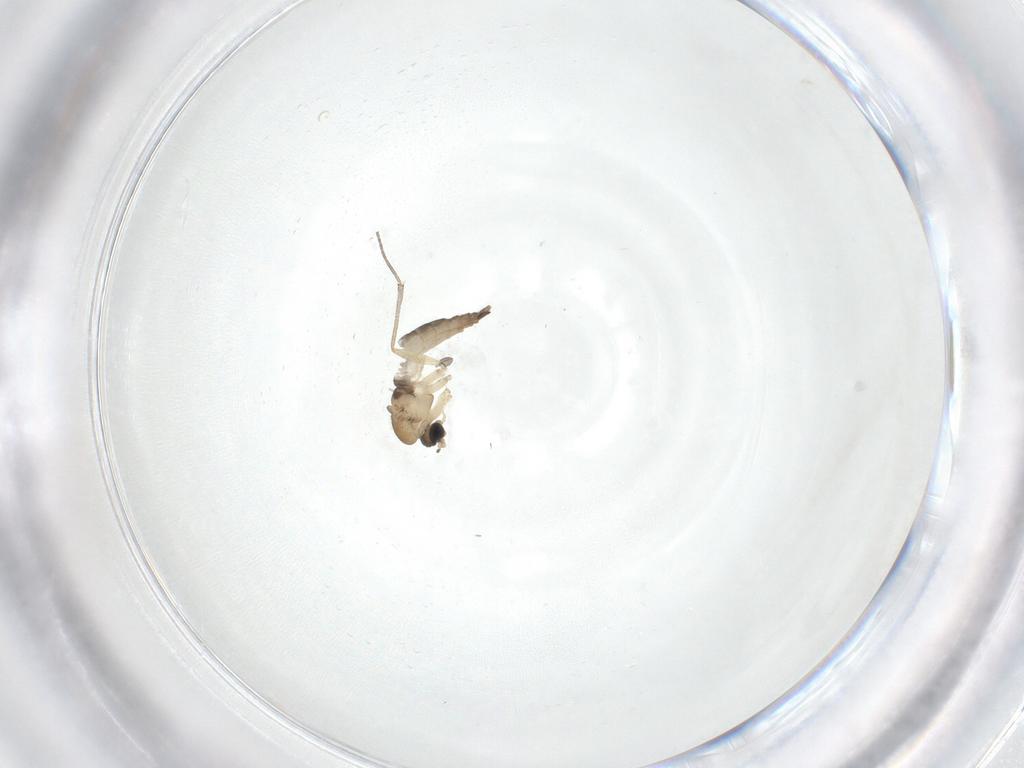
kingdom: Animalia
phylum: Arthropoda
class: Insecta
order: Diptera
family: Sciaridae
